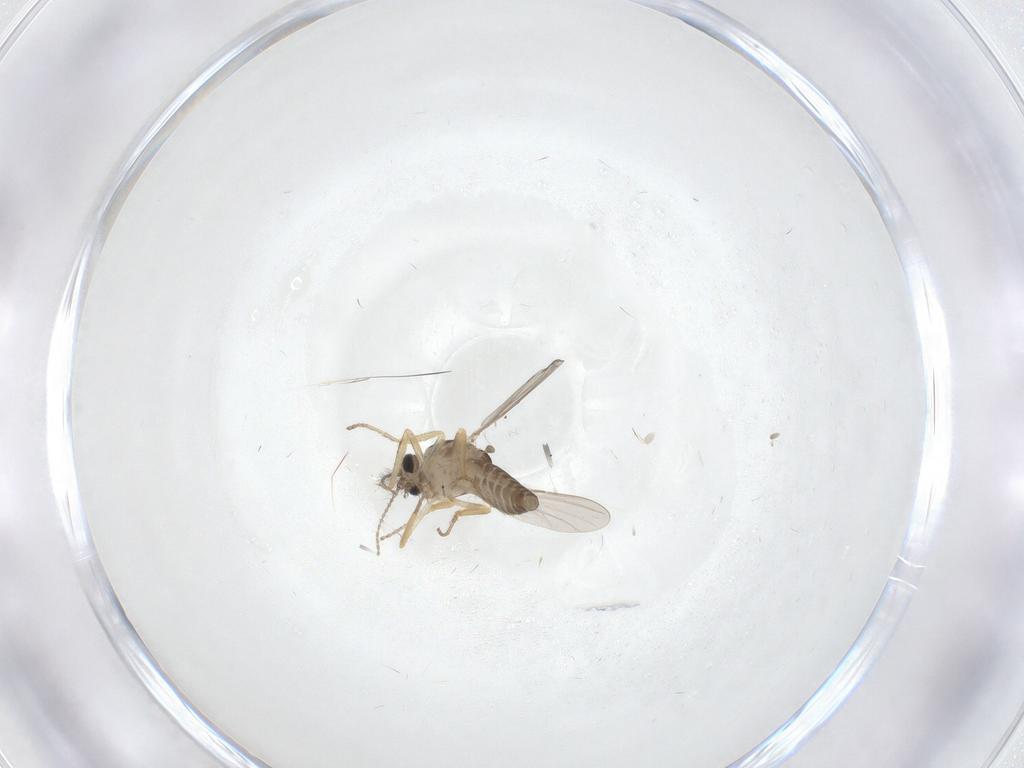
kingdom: Animalia
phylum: Arthropoda
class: Insecta
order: Diptera
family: Ceratopogonidae
